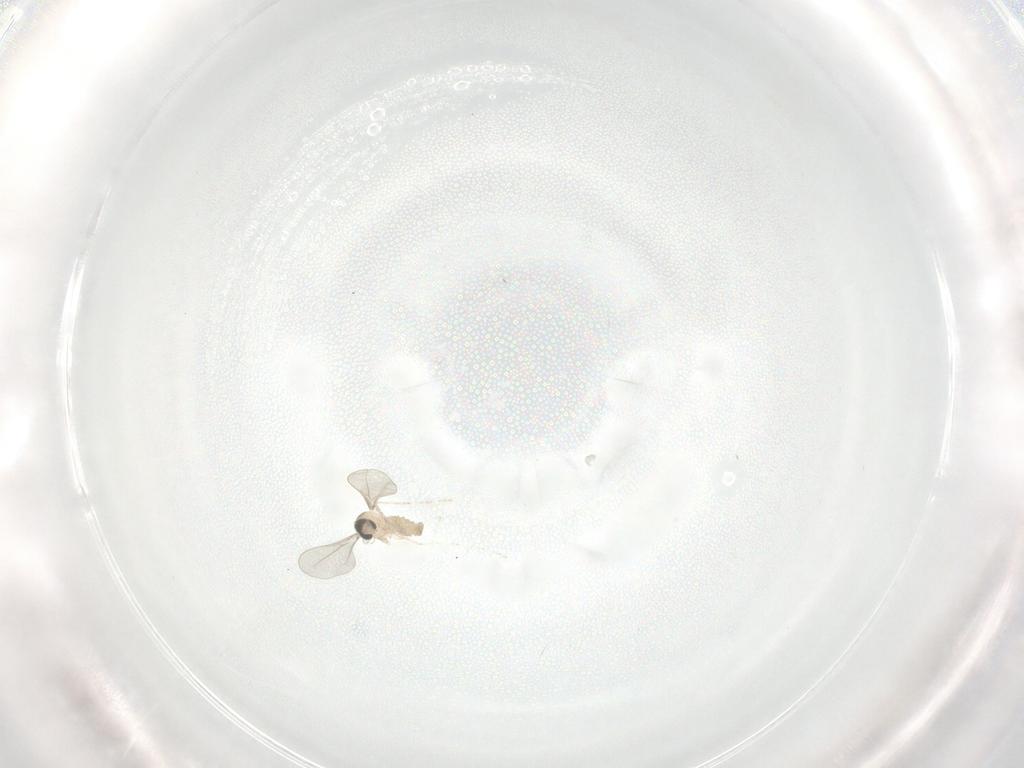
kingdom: Animalia
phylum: Arthropoda
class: Insecta
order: Diptera
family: Cecidomyiidae
